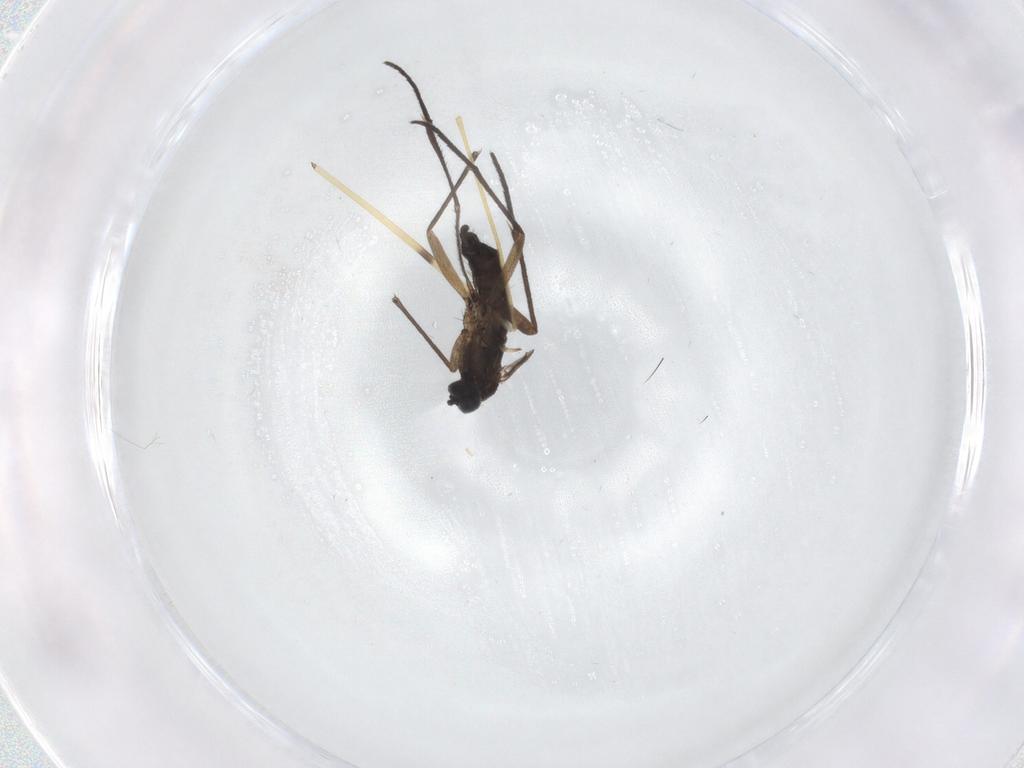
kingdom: Animalia
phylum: Arthropoda
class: Insecta
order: Diptera
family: Sciaridae
